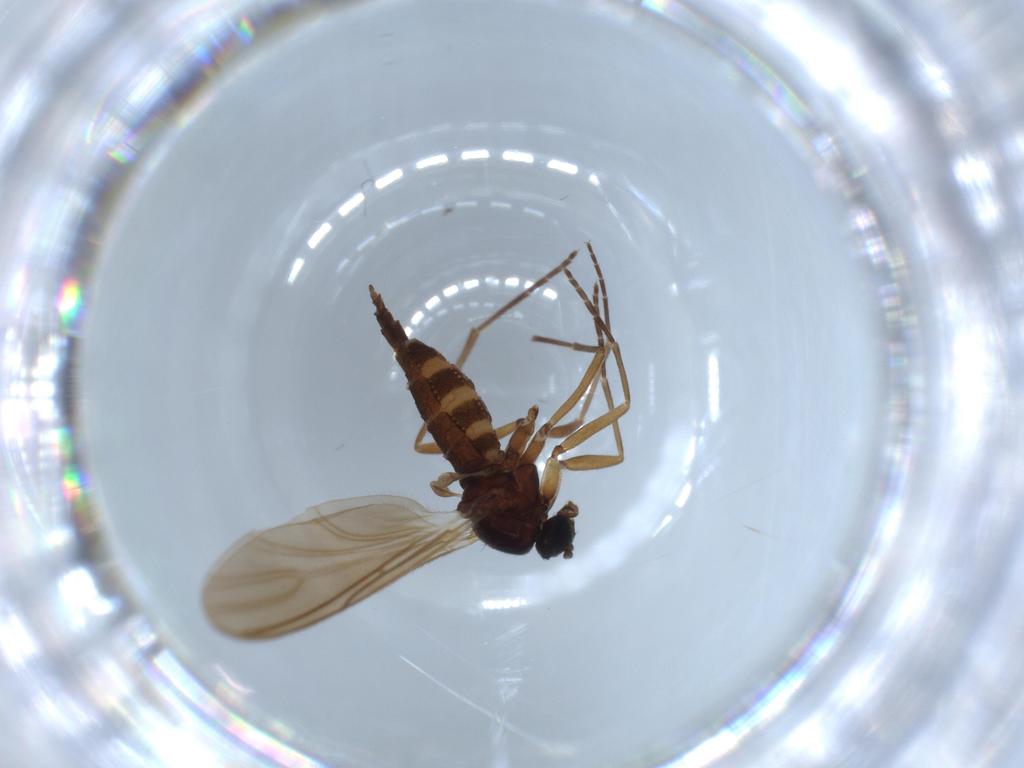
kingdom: Animalia
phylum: Arthropoda
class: Insecta
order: Diptera
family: Sciaridae
